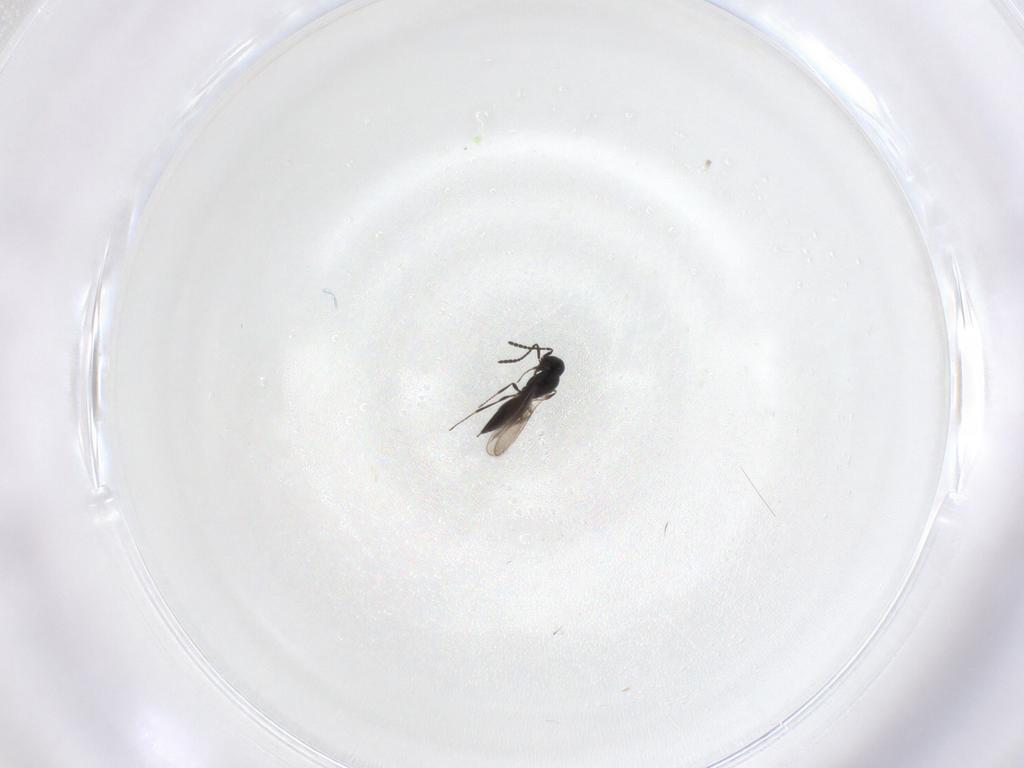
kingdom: Animalia
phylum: Arthropoda
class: Insecta
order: Hymenoptera
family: Scelionidae
